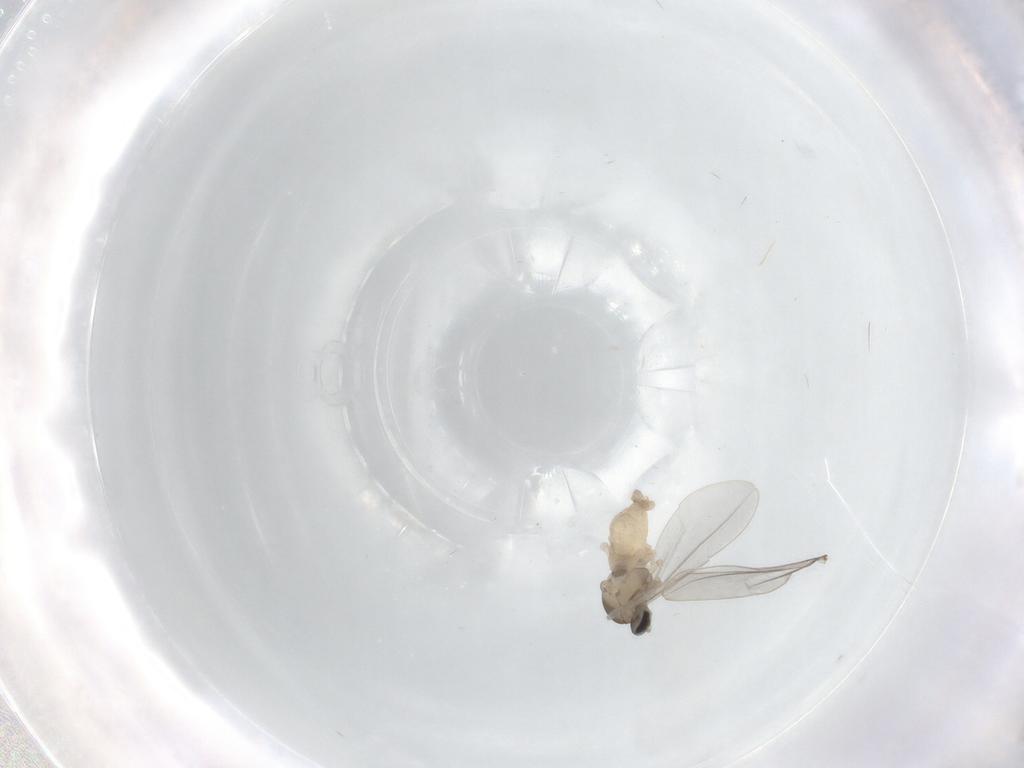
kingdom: Animalia
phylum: Arthropoda
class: Insecta
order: Diptera
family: Cecidomyiidae
